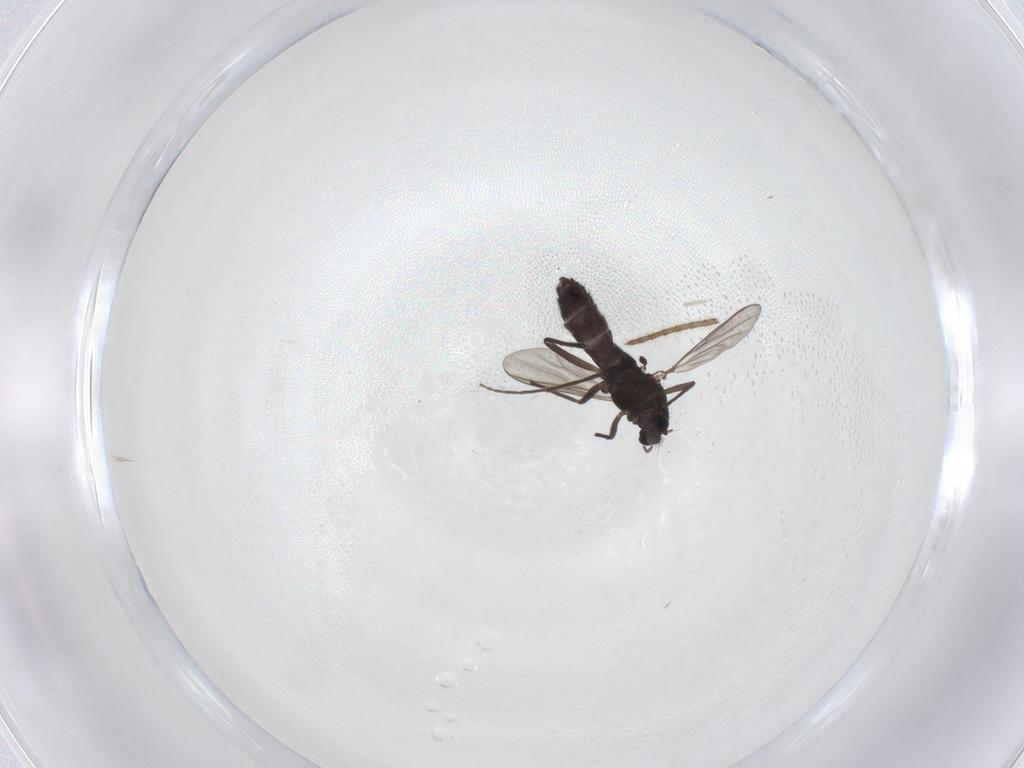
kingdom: Animalia
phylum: Arthropoda
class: Insecta
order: Diptera
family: Chironomidae
